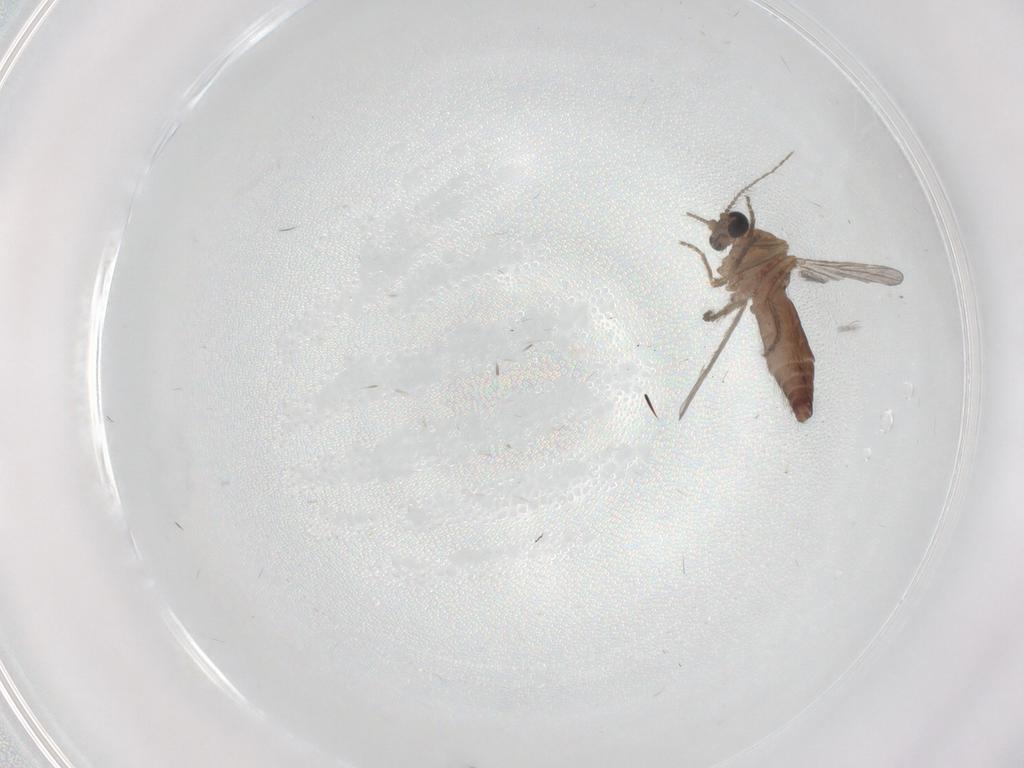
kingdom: Animalia
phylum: Arthropoda
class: Insecta
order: Diptera
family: Ceratopogonidae
